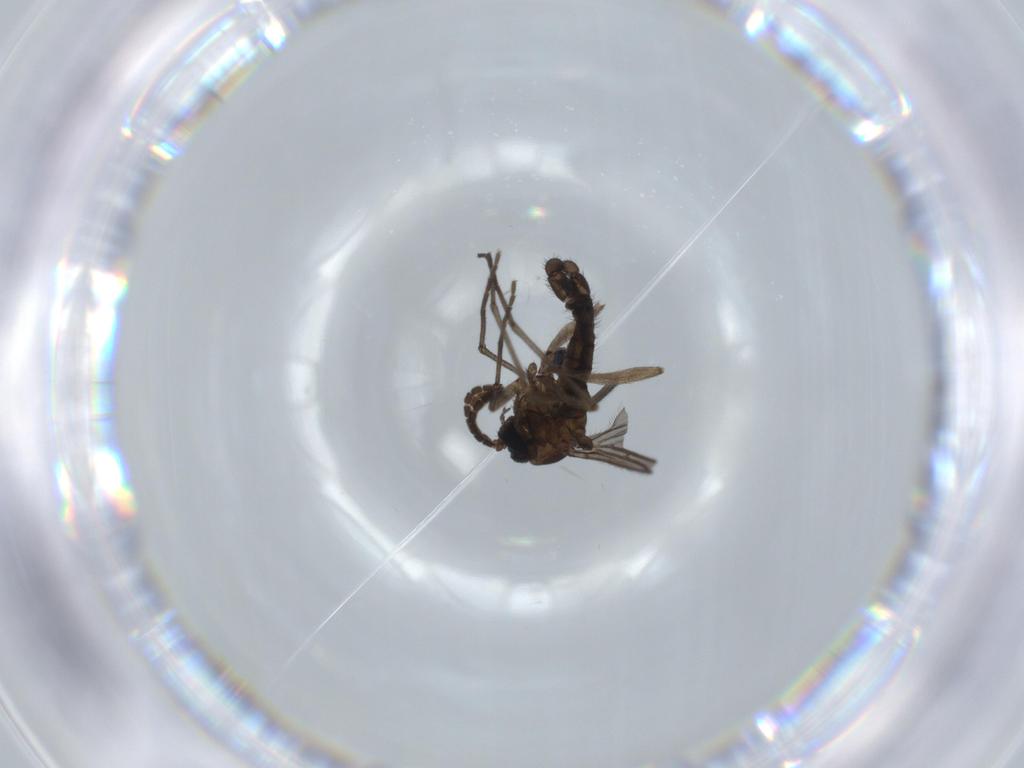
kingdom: Animalia
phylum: Arthropoda
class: Insecta
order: Diptera
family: Sciaridae
